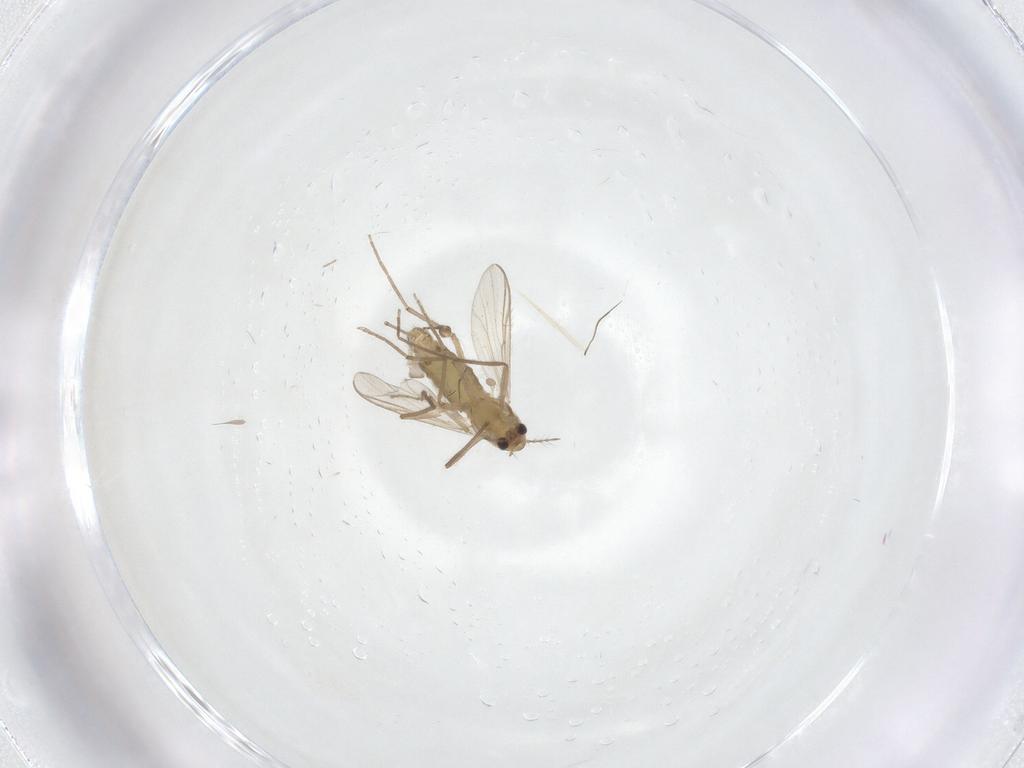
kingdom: Animalia
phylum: Arthropoda
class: Insecta
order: Diptera
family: Chironomidae
